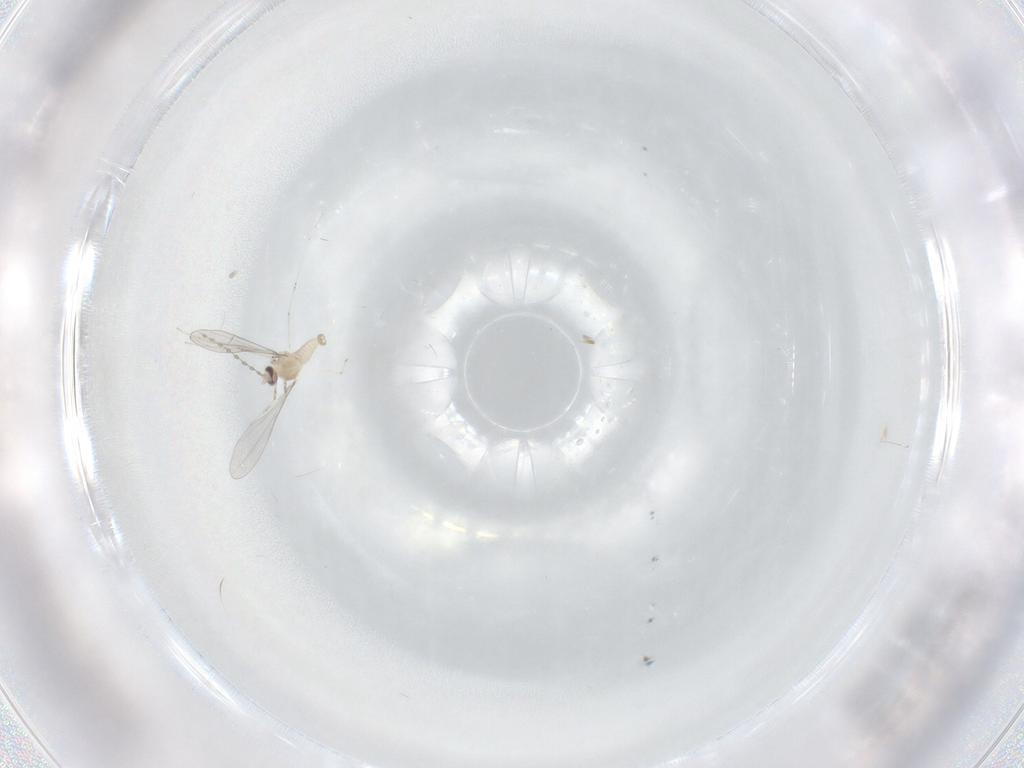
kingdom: Animalia
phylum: Arthropoda
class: Insecta
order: Diptera
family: Cecidomyiidae
